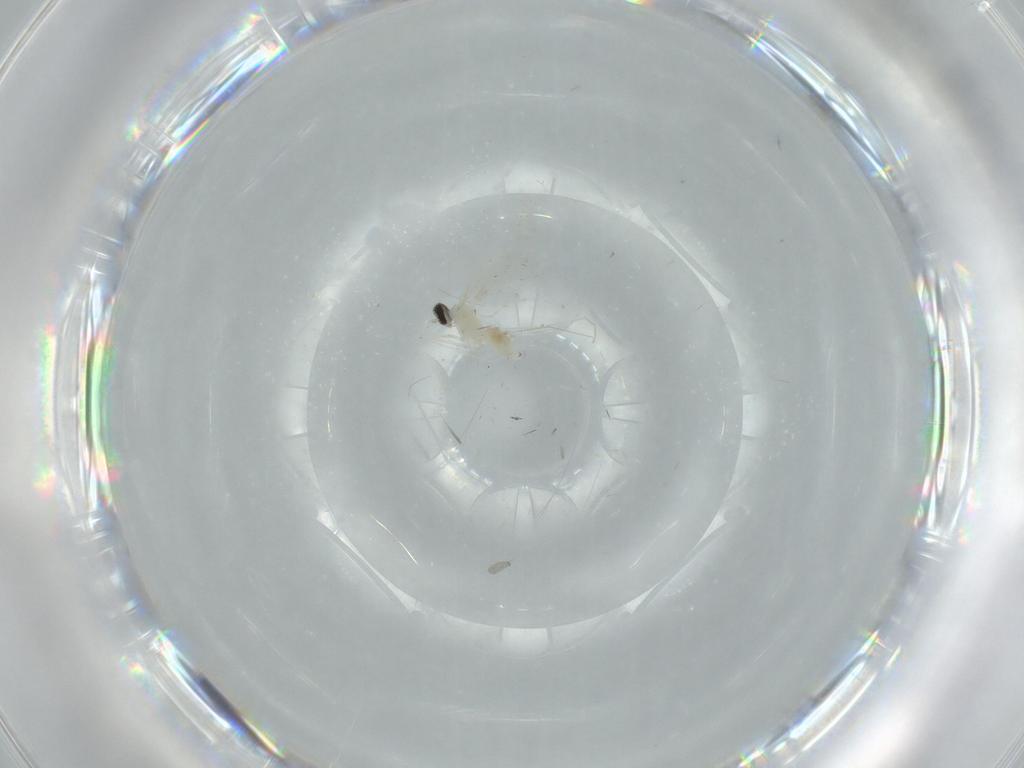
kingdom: Animalia
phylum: Arthropoda
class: Insecta
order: Diptera
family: Cecidomyiidae
